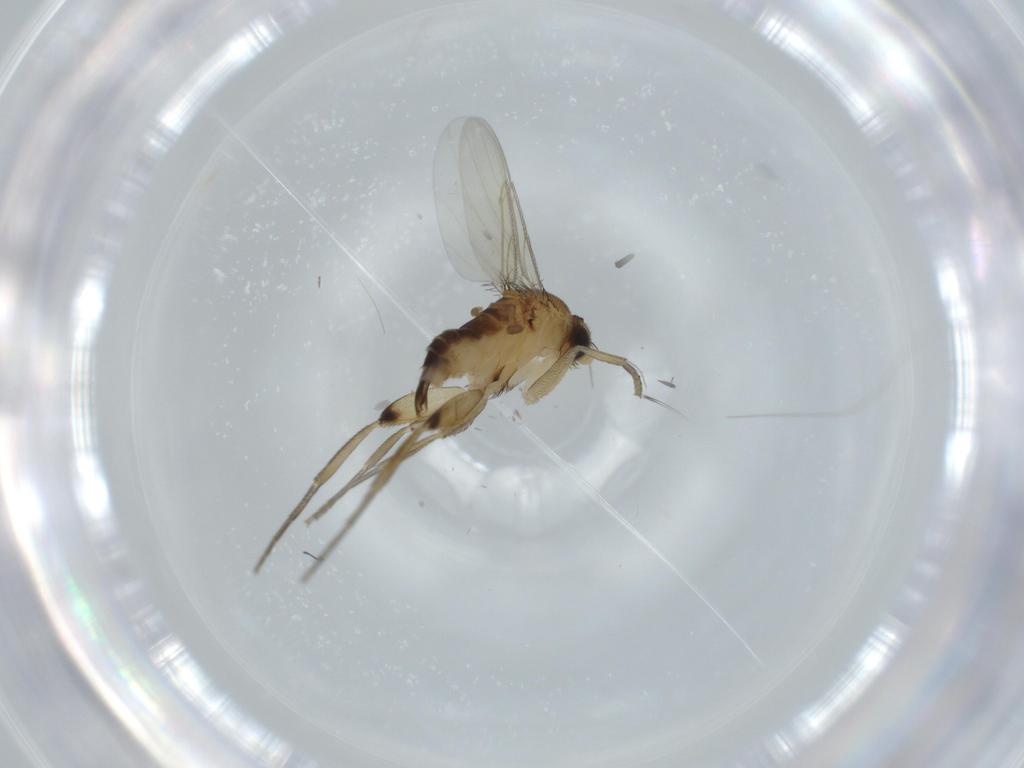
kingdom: Animalia
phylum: Arthropoda
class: Insecta
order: Diptera
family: Phoridae
